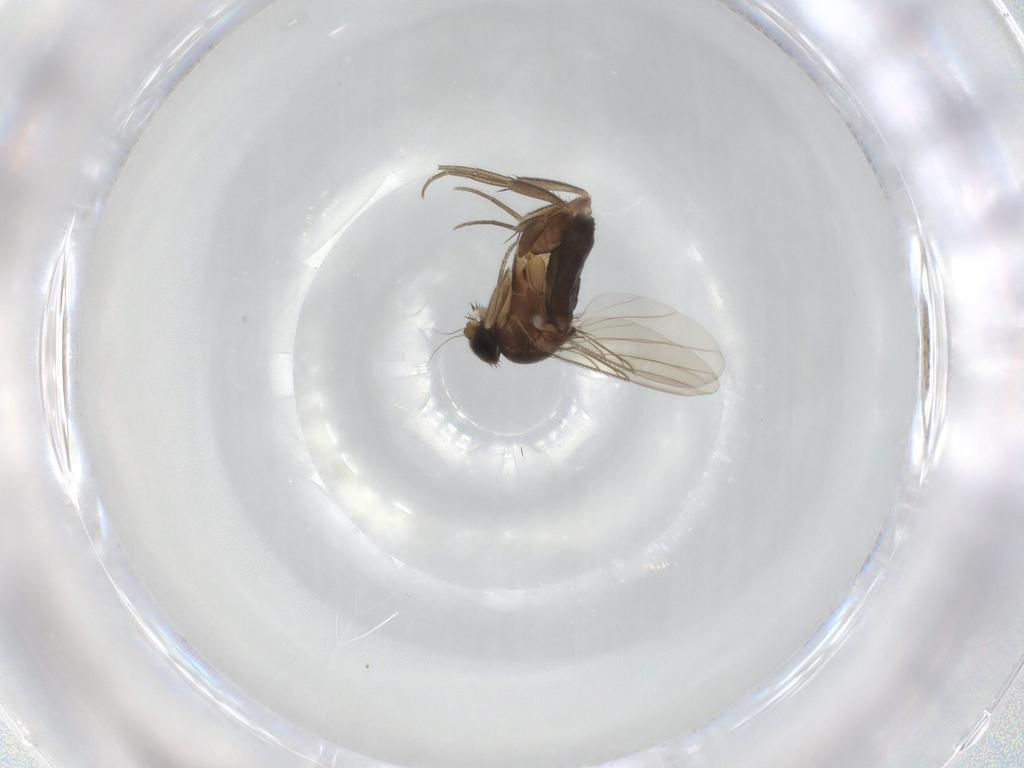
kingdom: Animalia
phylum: Arthropoda
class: Insecta
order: Diptera
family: Phoridae
